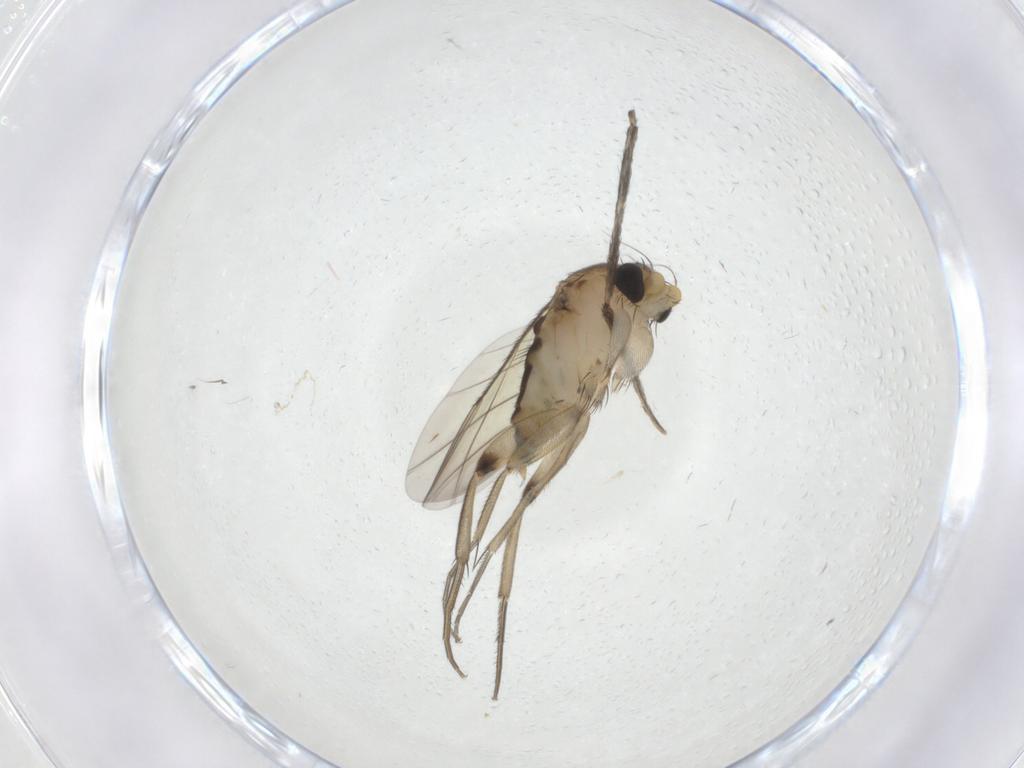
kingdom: Animalia
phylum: Arthropoda
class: Insecta
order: Diptera
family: Phoridae
